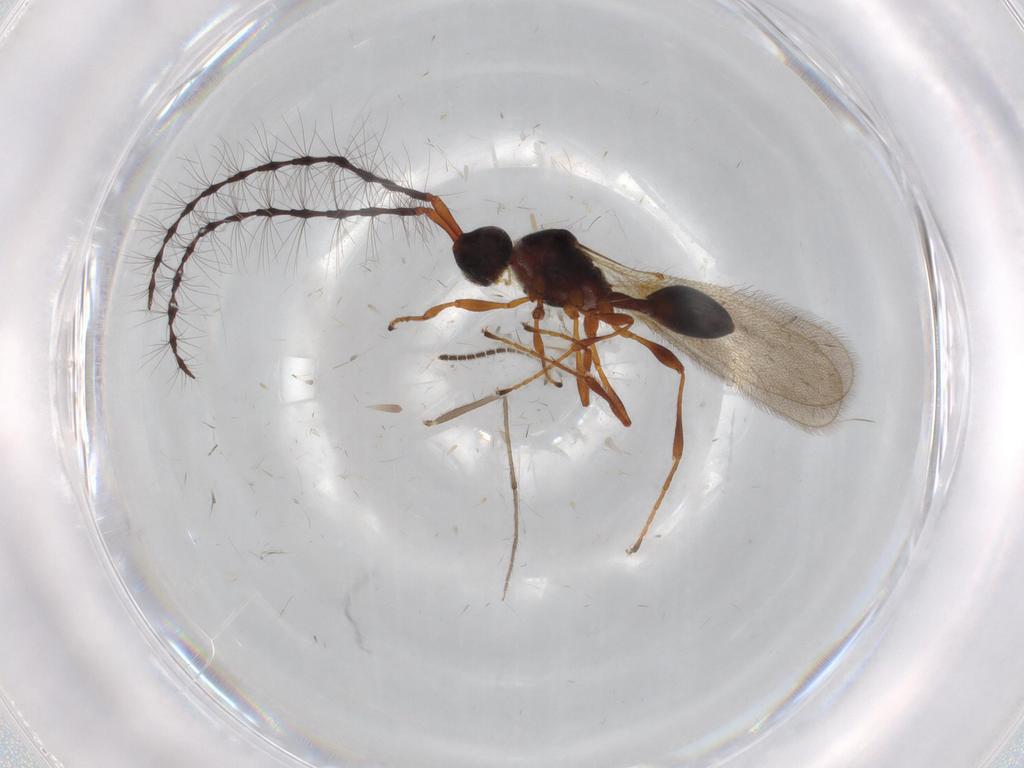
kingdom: Animalia
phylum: Arthropoda
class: Insecta
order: Hymenoptera
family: Diapriidae
